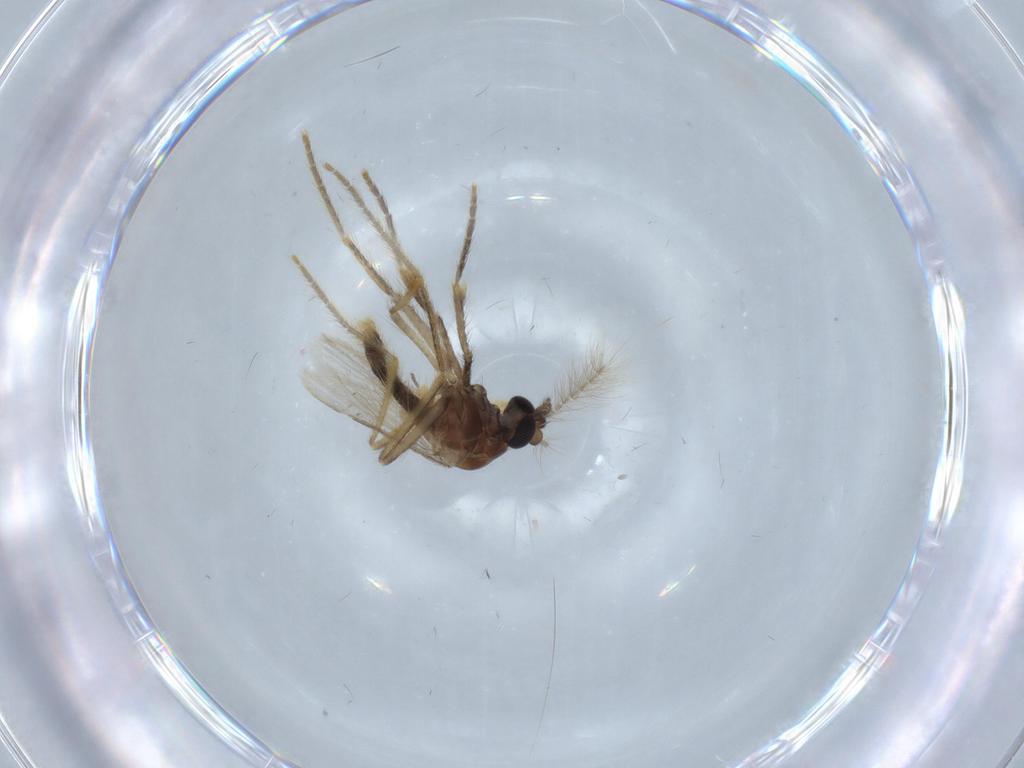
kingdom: Animalia
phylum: Arthropoda
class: Insecta
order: Diptera
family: Chironomidae
